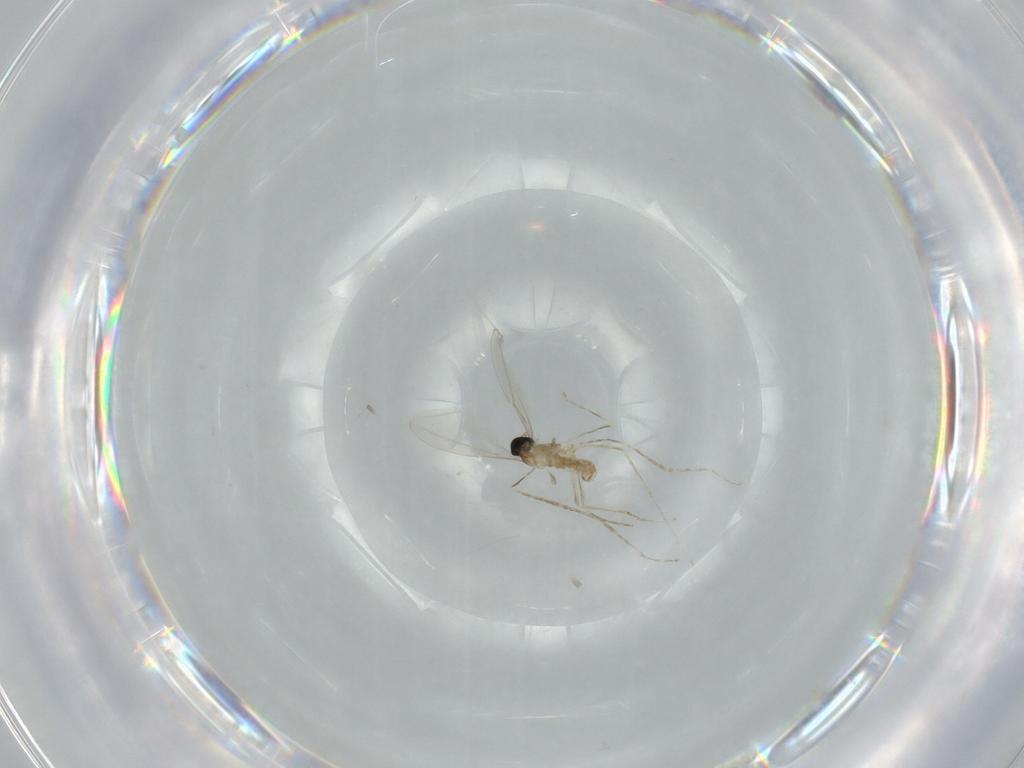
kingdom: Animalia
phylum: Arthropoda
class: Insecta
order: Diptera
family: Cecidomyiidae
